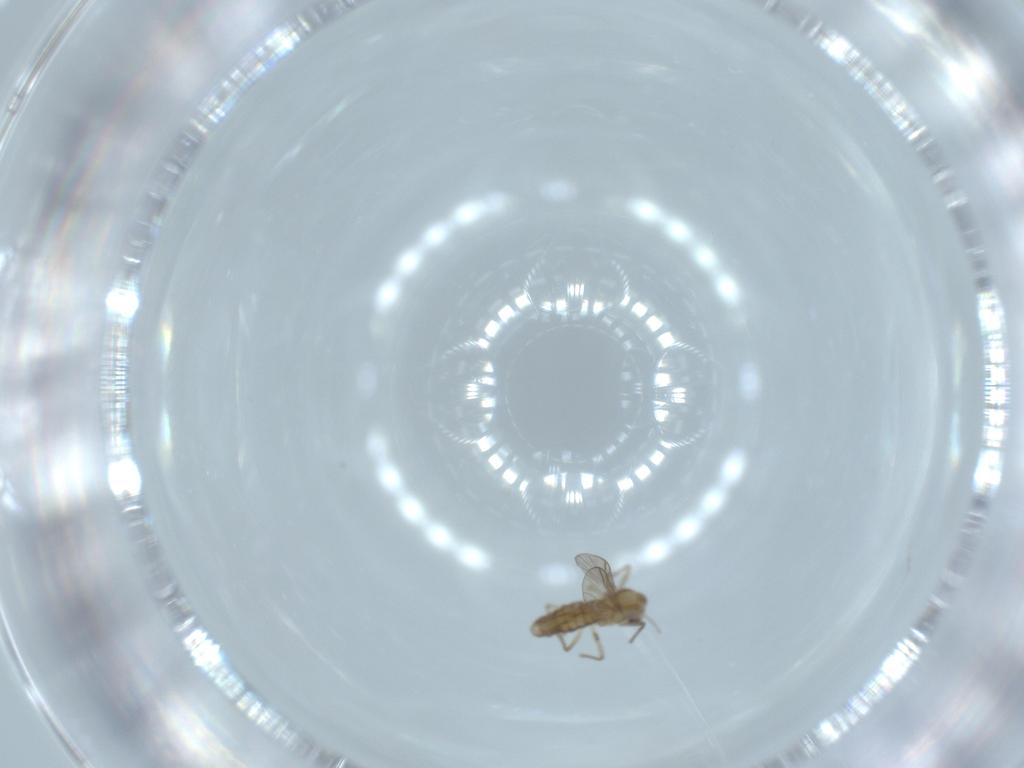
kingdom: Animalia
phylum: Arthropoda
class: Insecta
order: Diptera
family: Chironomidae
